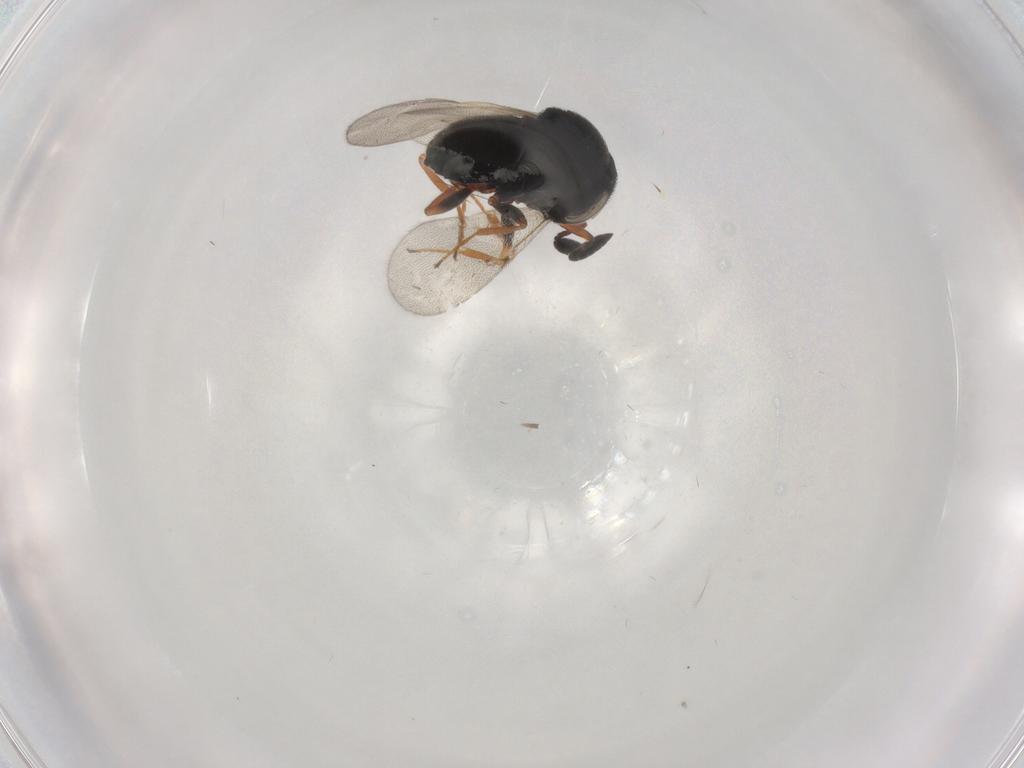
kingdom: Animalia
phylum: Arthropoda
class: Insecta
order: Hymenoptera
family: Scelionidae
